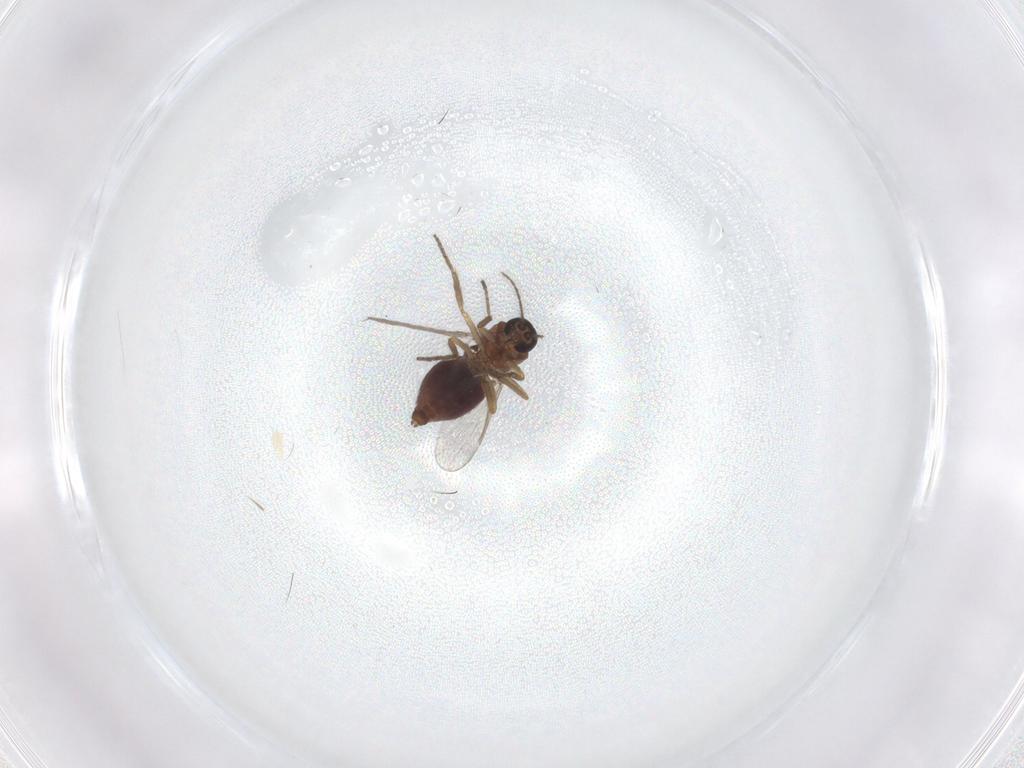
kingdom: Animalia
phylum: Arthropoda
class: Insecta
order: Diptera
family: Ceratopogonidae
